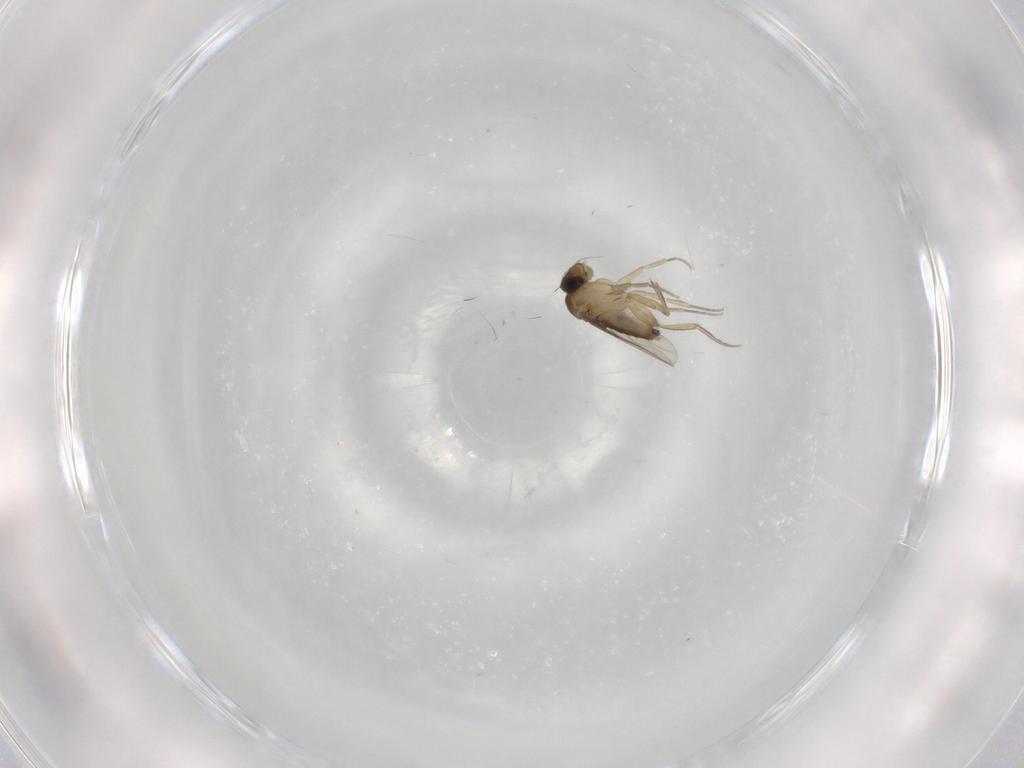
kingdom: Animalia
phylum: Arthropoda
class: Insecta
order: Diptera
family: Phoridae
